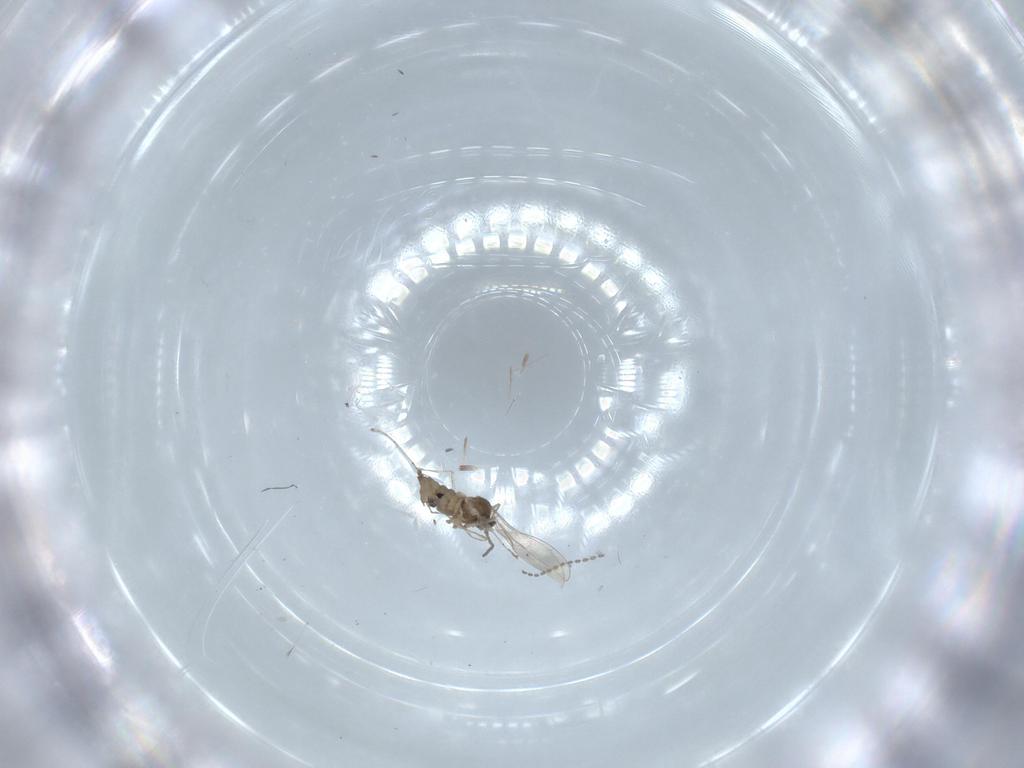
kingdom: Animalia
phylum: Arthropoda
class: Insecta
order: Diptera
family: Cecidomyiidae
